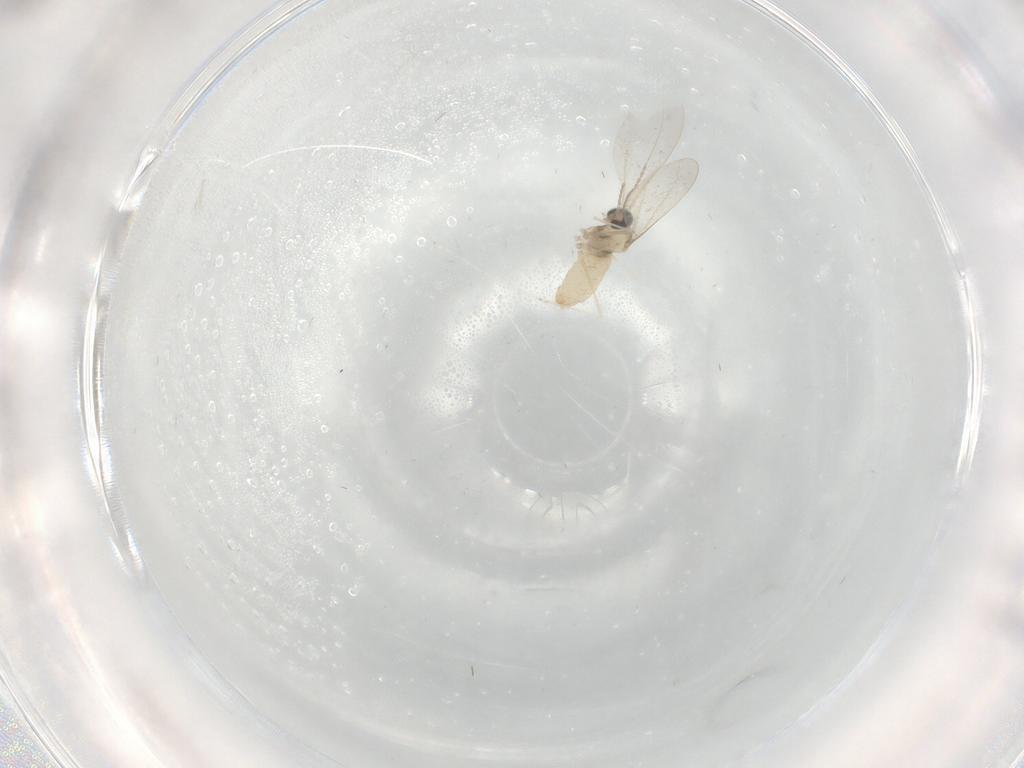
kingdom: Animalia
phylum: Arthropoda
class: Insecta
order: Diptera
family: Cecidomyiidae
